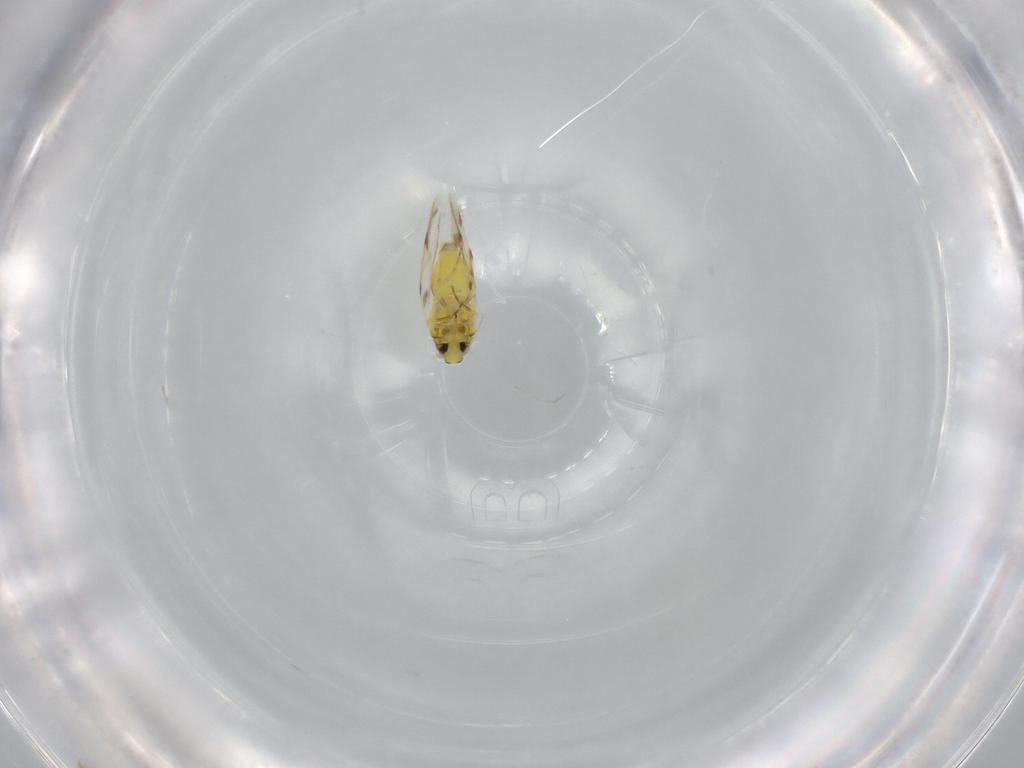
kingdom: Animalia
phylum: Arthropoda
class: Insecta
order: Hemiptera
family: Aleyrodidae
